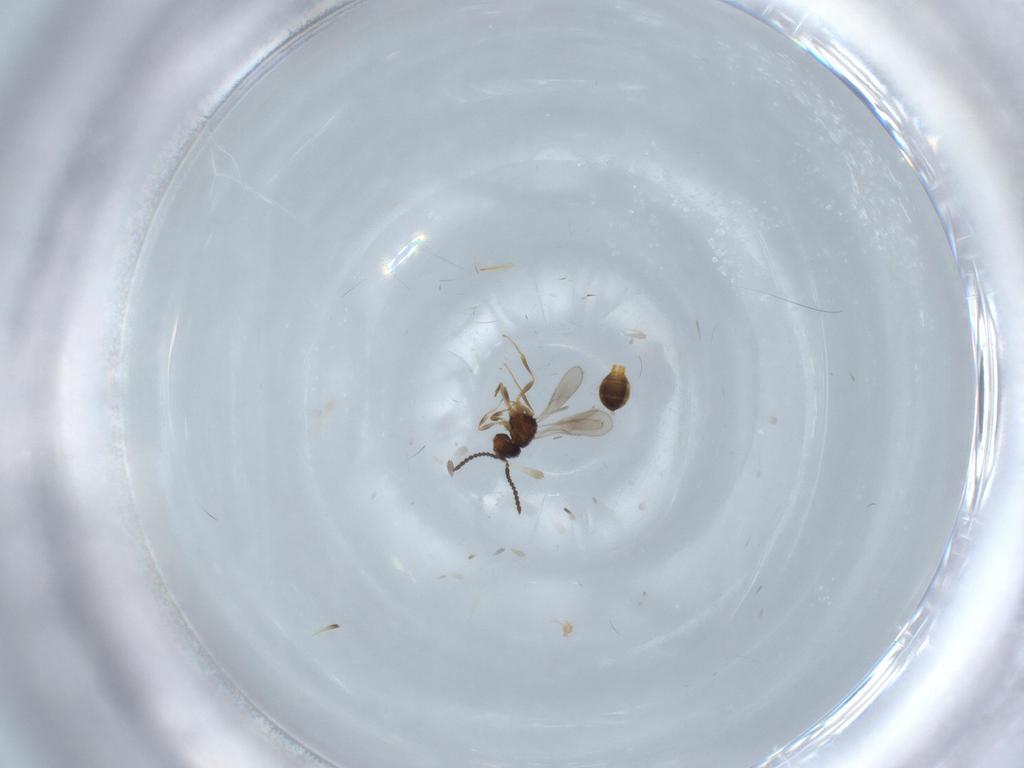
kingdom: Animalia
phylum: Arthropoda
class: Insecta
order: Hymenoptera
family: Scelionidae
